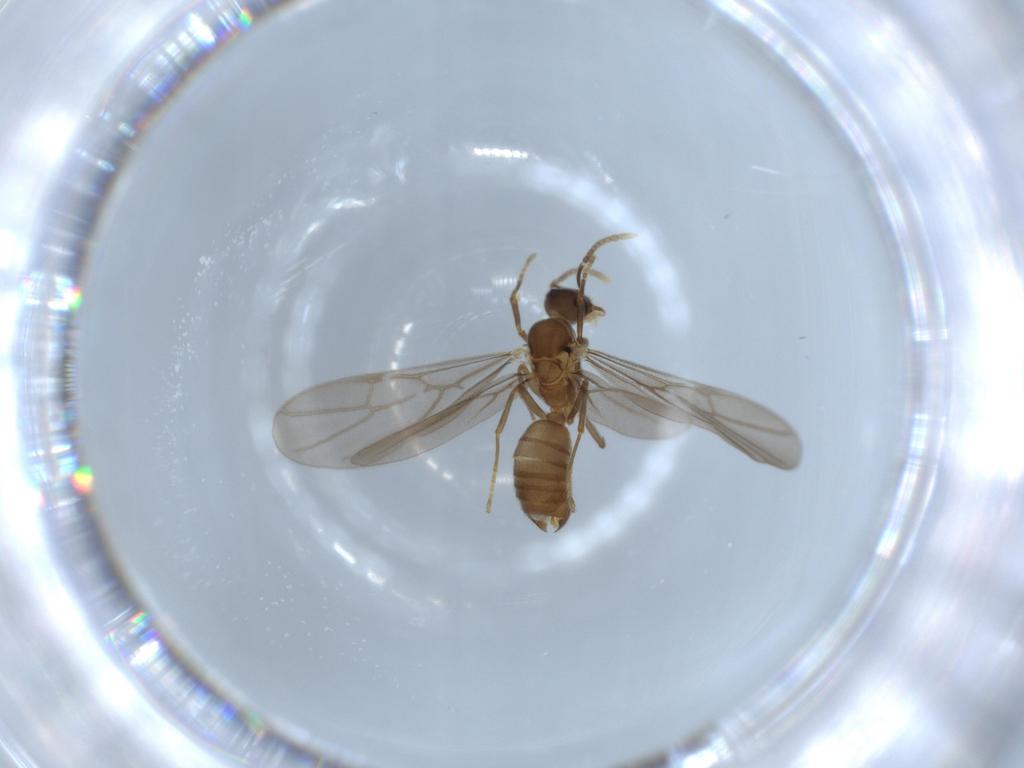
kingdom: Animalia
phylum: Arthropoda
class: Insecta
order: Hymenoptera
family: Formicidae
